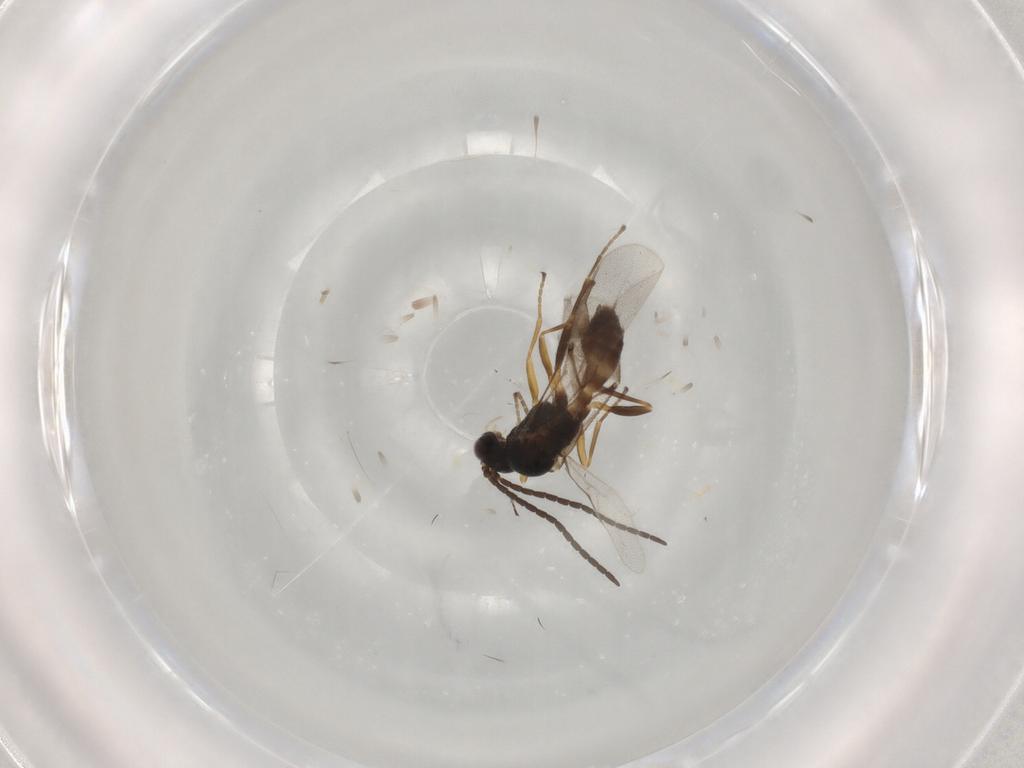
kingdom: Animalia
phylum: Arthropoda
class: Insecta
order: Hymenoptera
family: Braconidae
